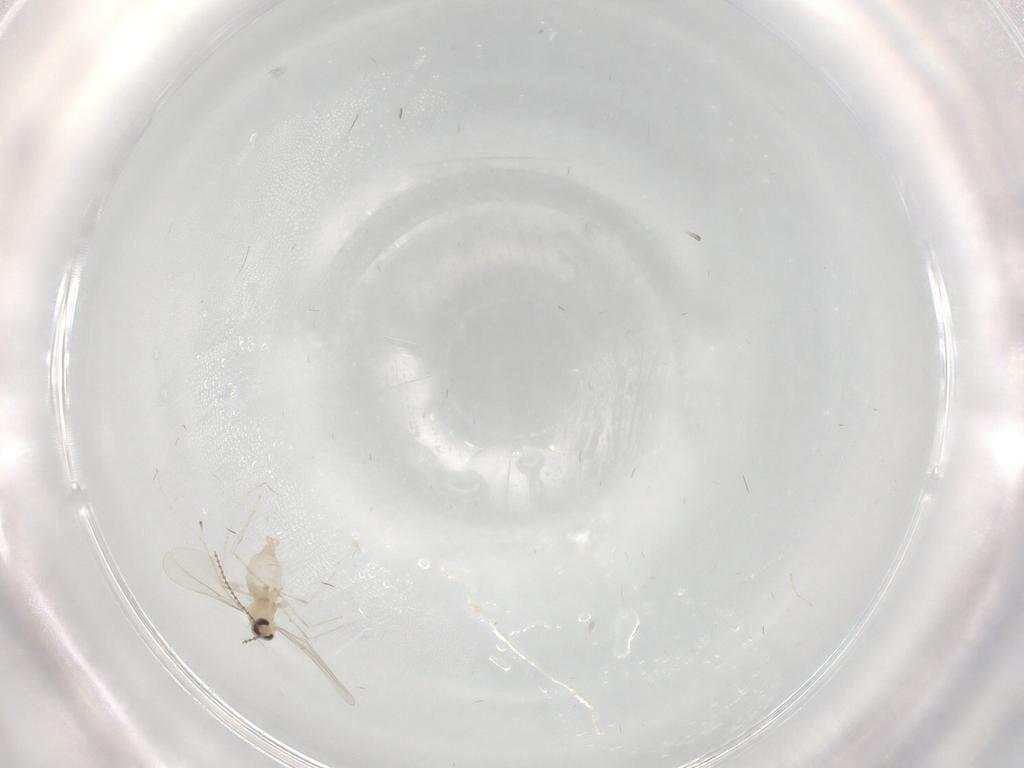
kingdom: Animalia
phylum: Arthropoda
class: Insecta
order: Diptera
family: Cecidomyiidae
